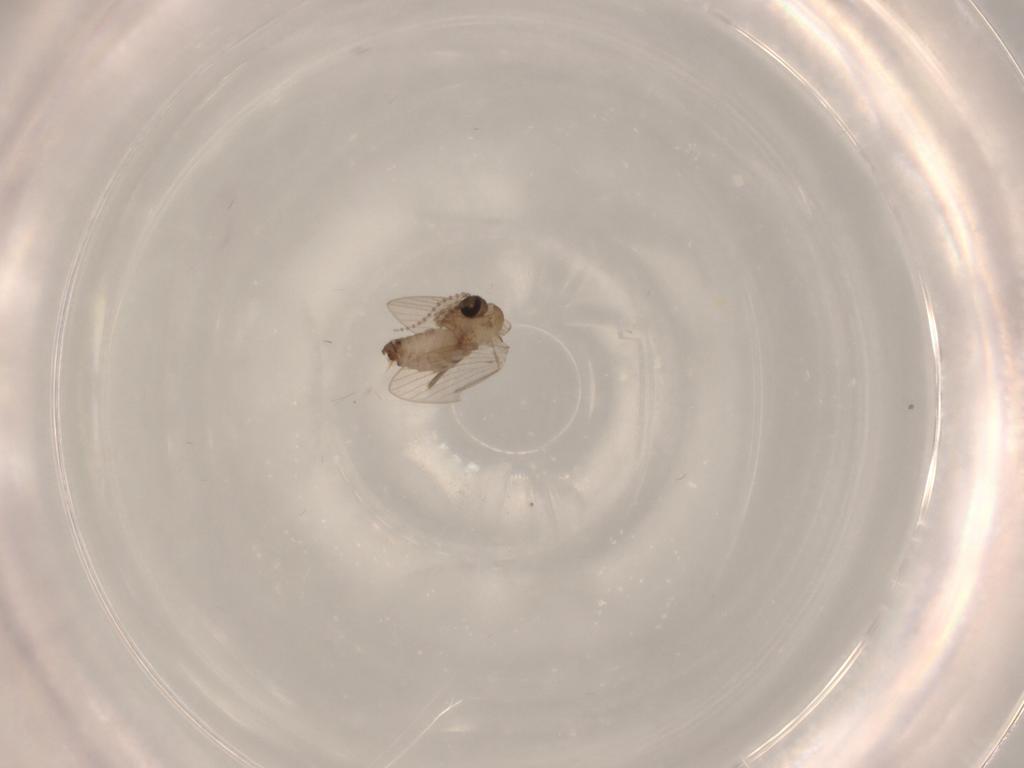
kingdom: Animalia
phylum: Arthropoda
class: Insecta
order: Diptera
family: Psychodidae
